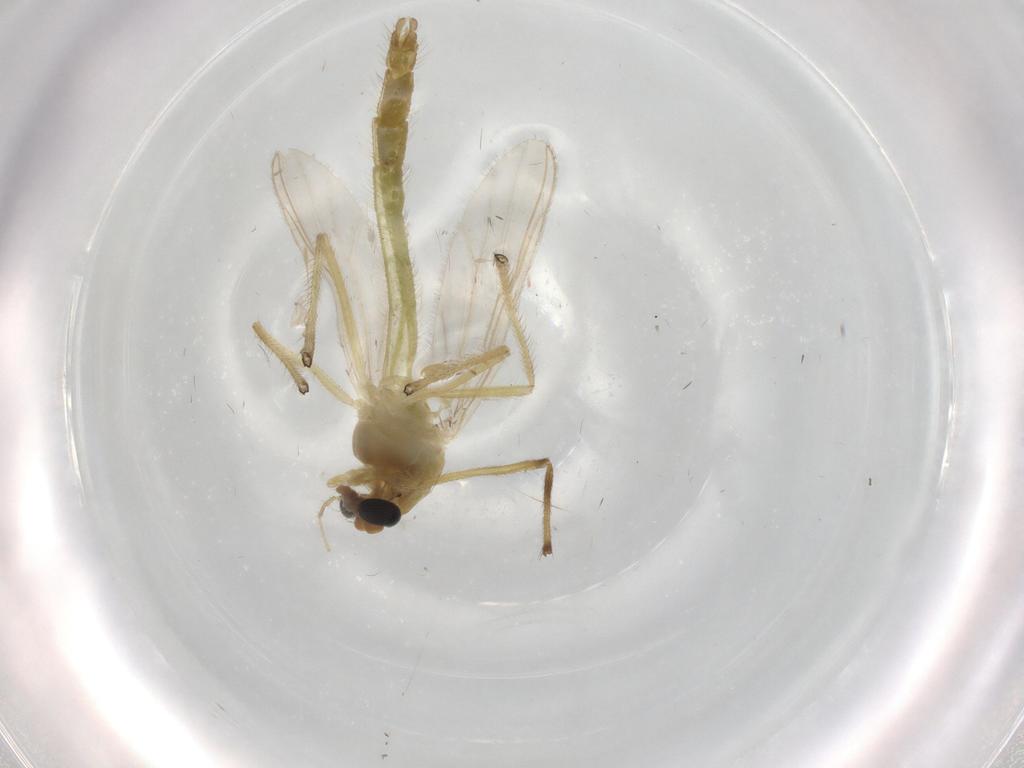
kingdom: Animalia
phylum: Arthropoda
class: Insecta
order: Diptera
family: Chironomidae
